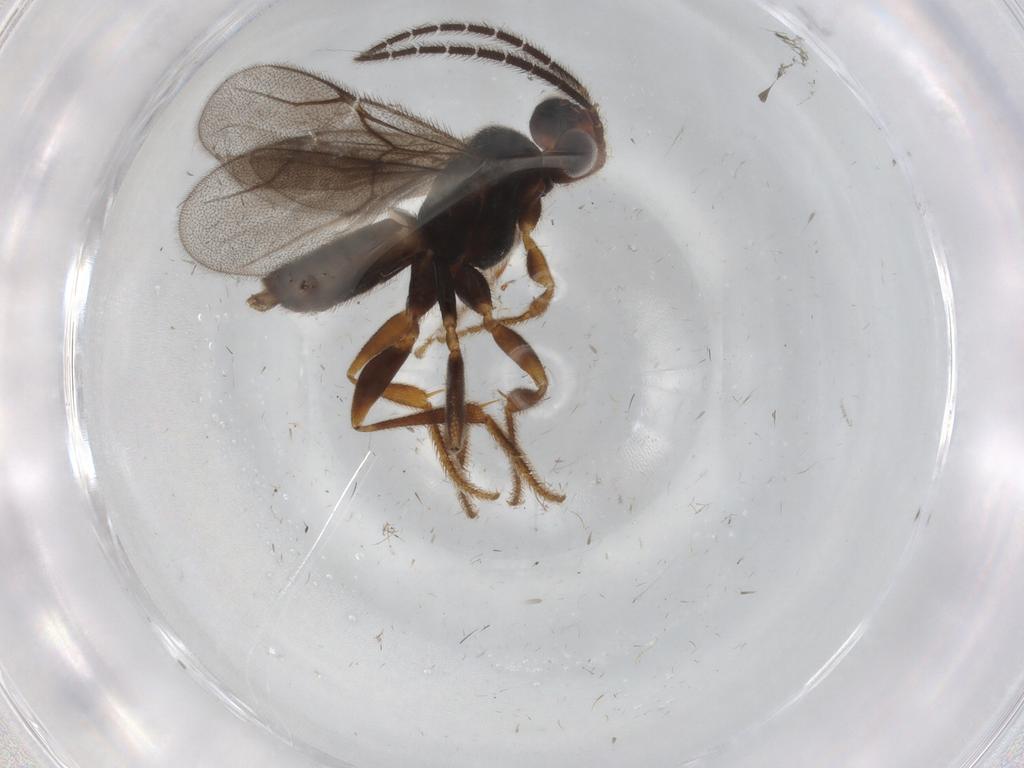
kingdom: Animalia
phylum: Arthropoda
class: Insecta
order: Hymenoptera
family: Dryinidae
